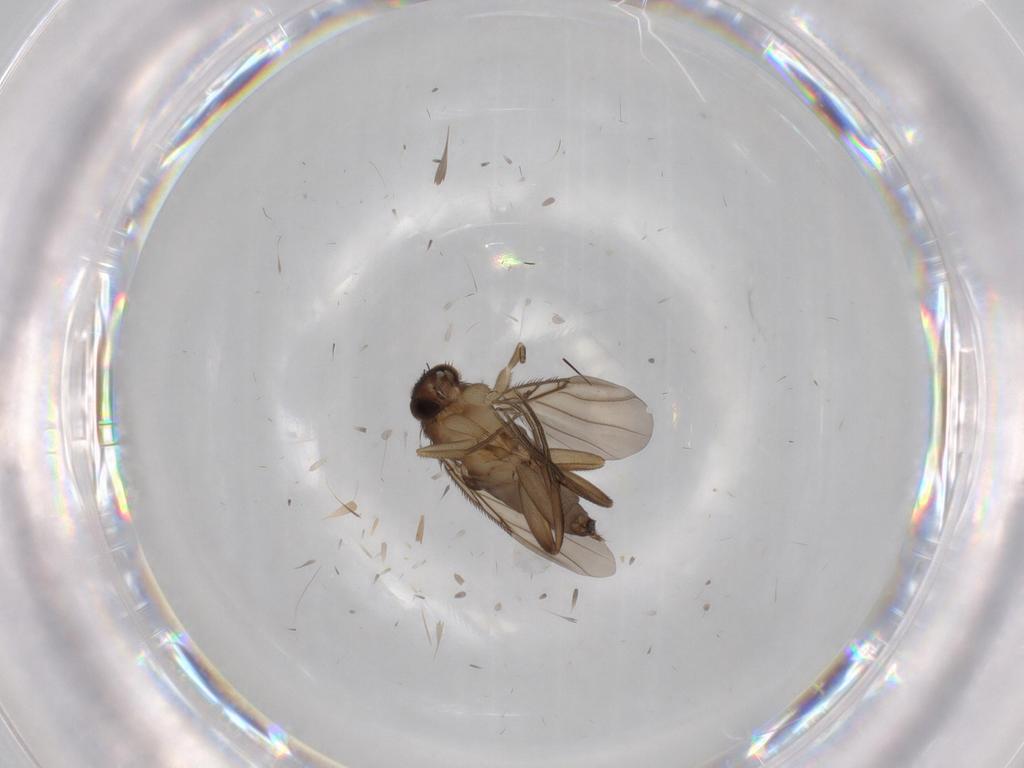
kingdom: Animalia
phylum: Arthropoda
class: Insecta
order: Diptera
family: Phoridae
